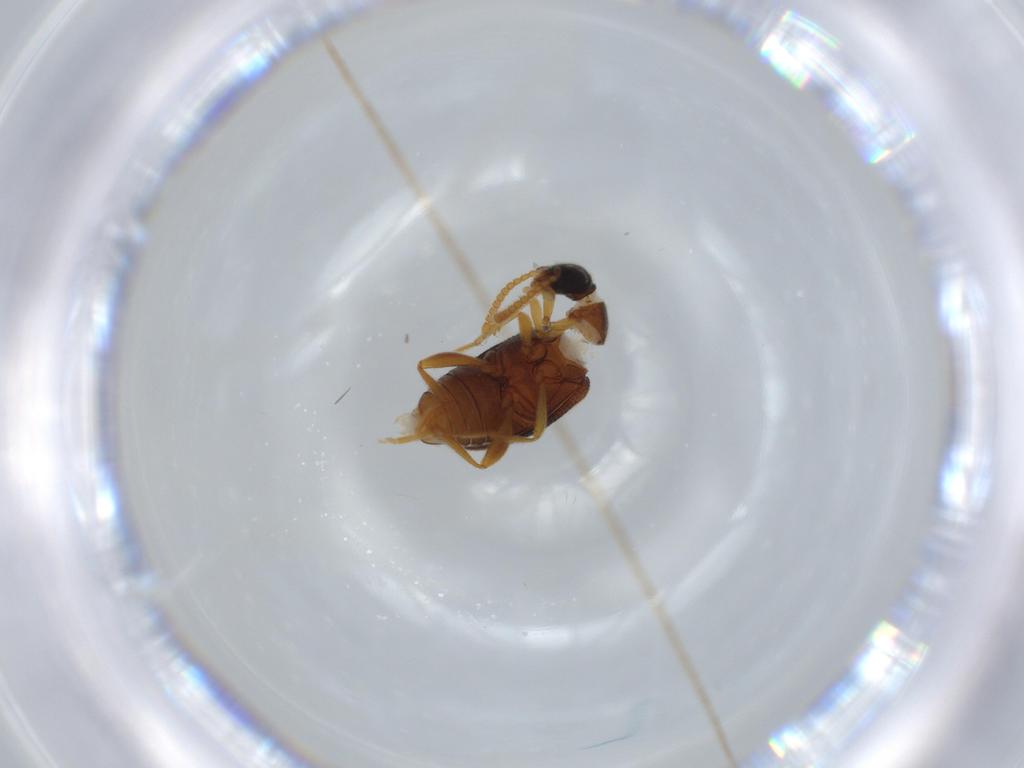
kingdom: Animalia
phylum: Arthropoda
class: Insecta
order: Coleoptera
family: Aderidae
